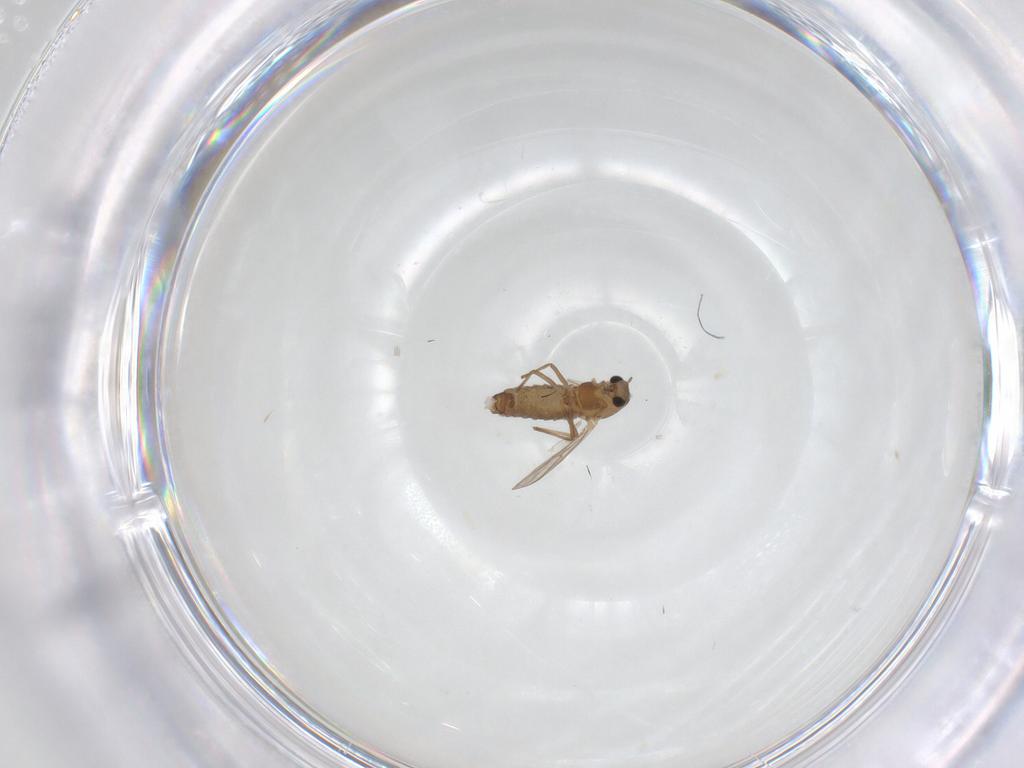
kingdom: Animalia
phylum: Arthropoda
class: Insecta
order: Diptera
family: Chironomidae
